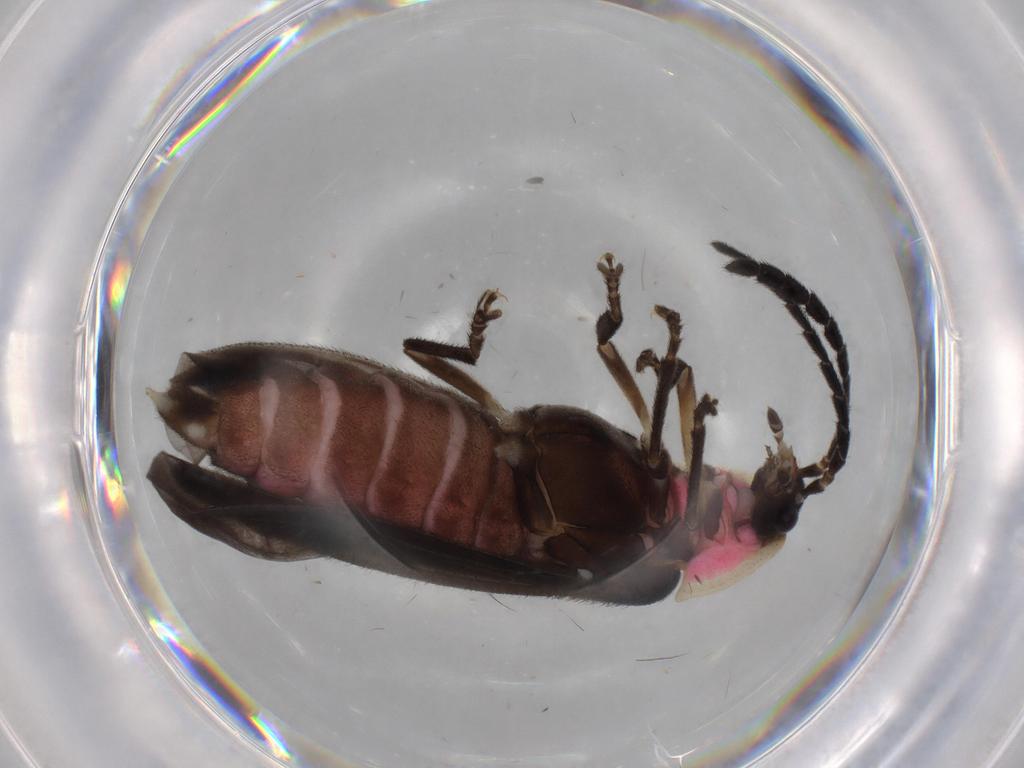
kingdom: Animalia
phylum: Arthropoda
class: Insecta
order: Coleoptera
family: Lampyridae
